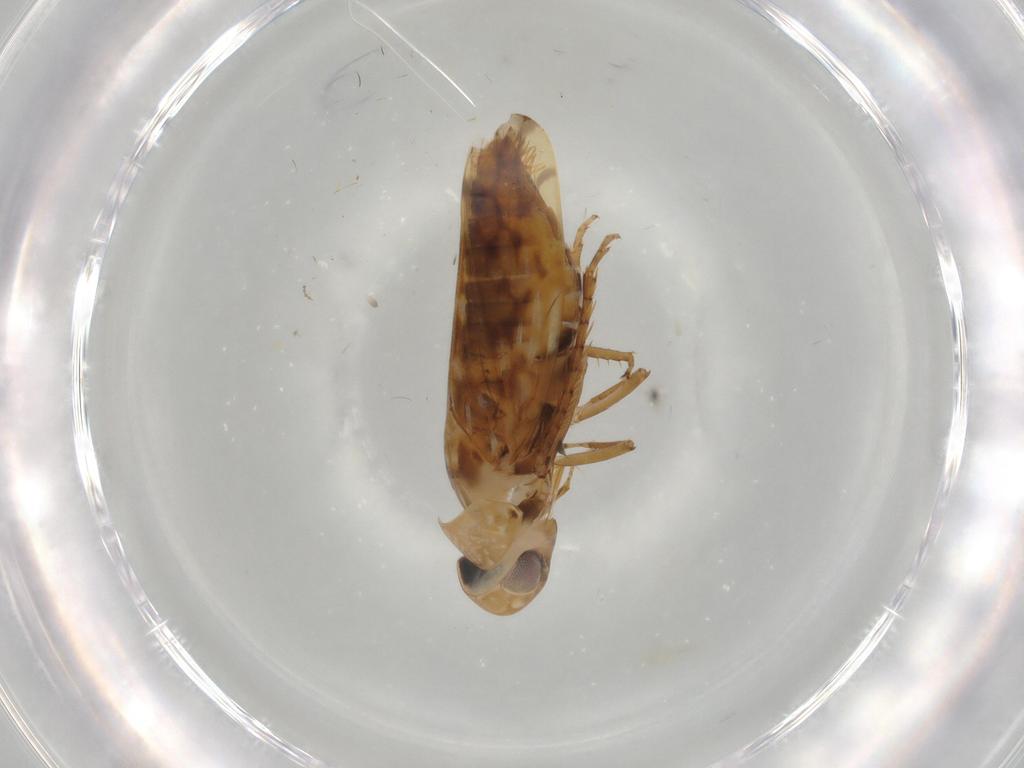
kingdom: Animalia
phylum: Arthropoda
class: Insecta
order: Hemiptera
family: Cicadellidae
